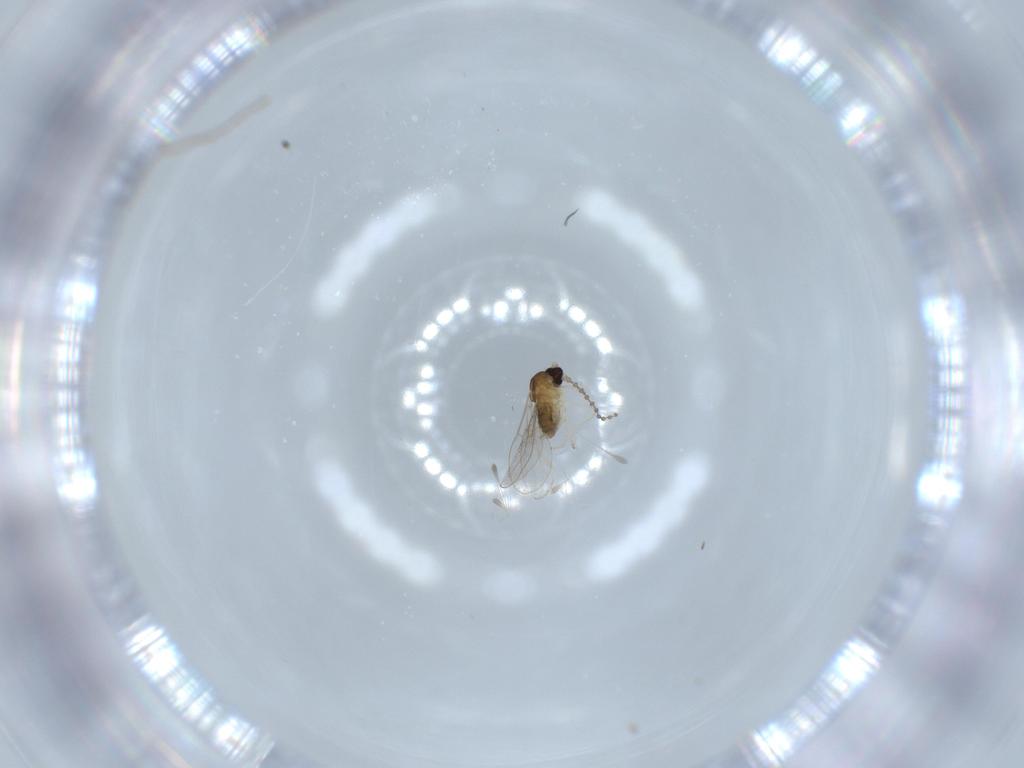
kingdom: Animalia
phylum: Arthropoda
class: Insecta
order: Diptera
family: Cecidomyiidae
